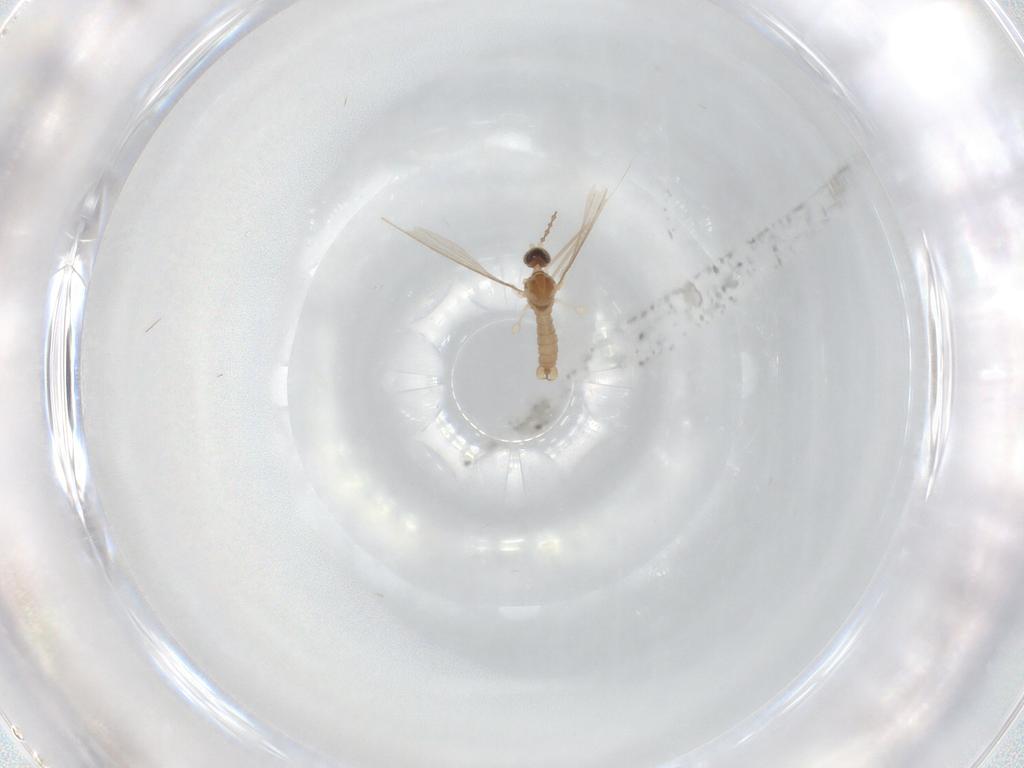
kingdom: Animalia
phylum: Arthropoda
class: Insecta
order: Diptera
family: Cecidomyiidae
